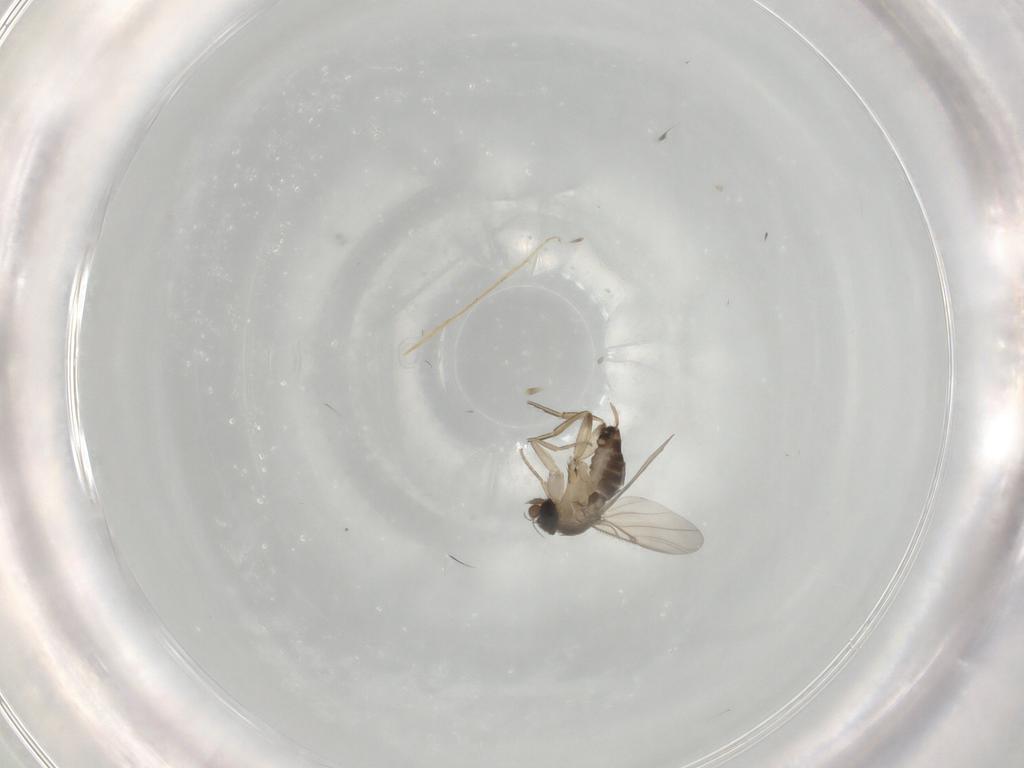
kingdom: Animalia
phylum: Arthropoda
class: Insecta
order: Diptera
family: Phoridae
